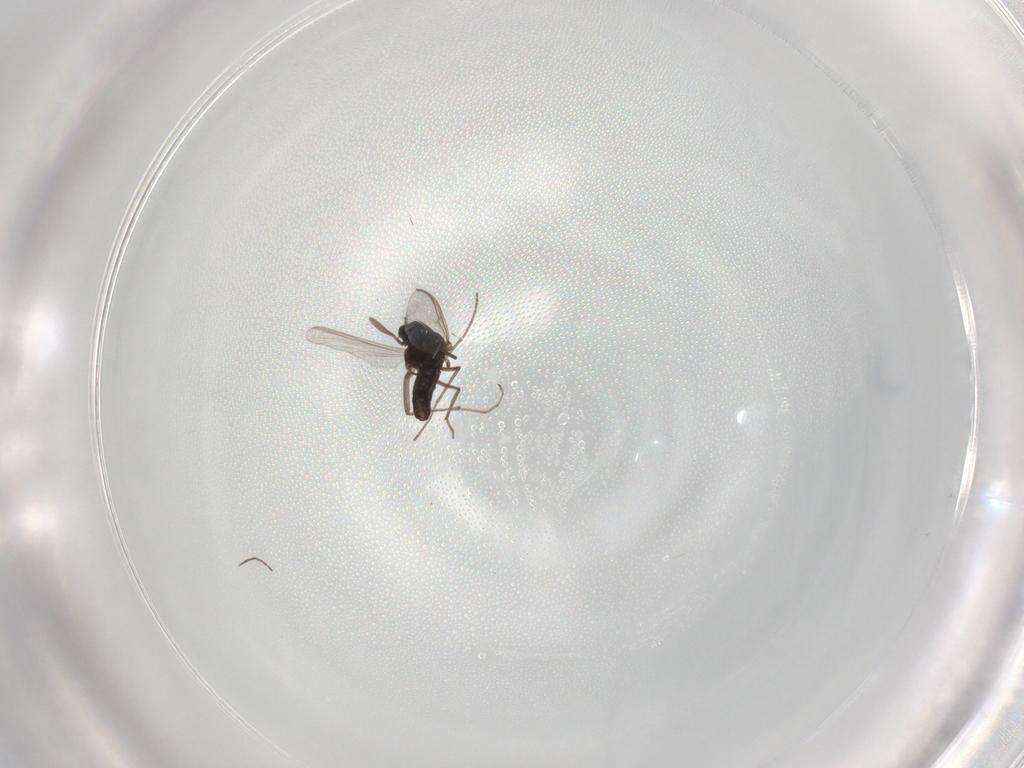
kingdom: Animalia
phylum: Arthropoda
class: Insecta
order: Diptera
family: Chironomidae
